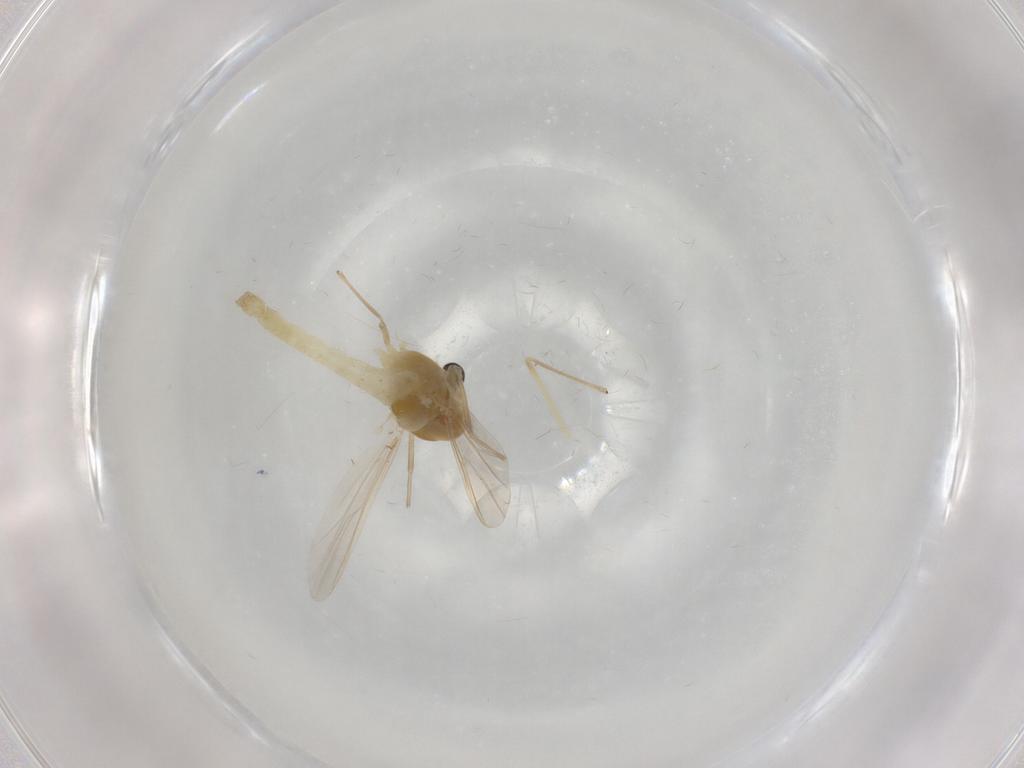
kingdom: Animalia
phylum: Arthropoda
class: Insecta
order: Diptera
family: Chironomidae
